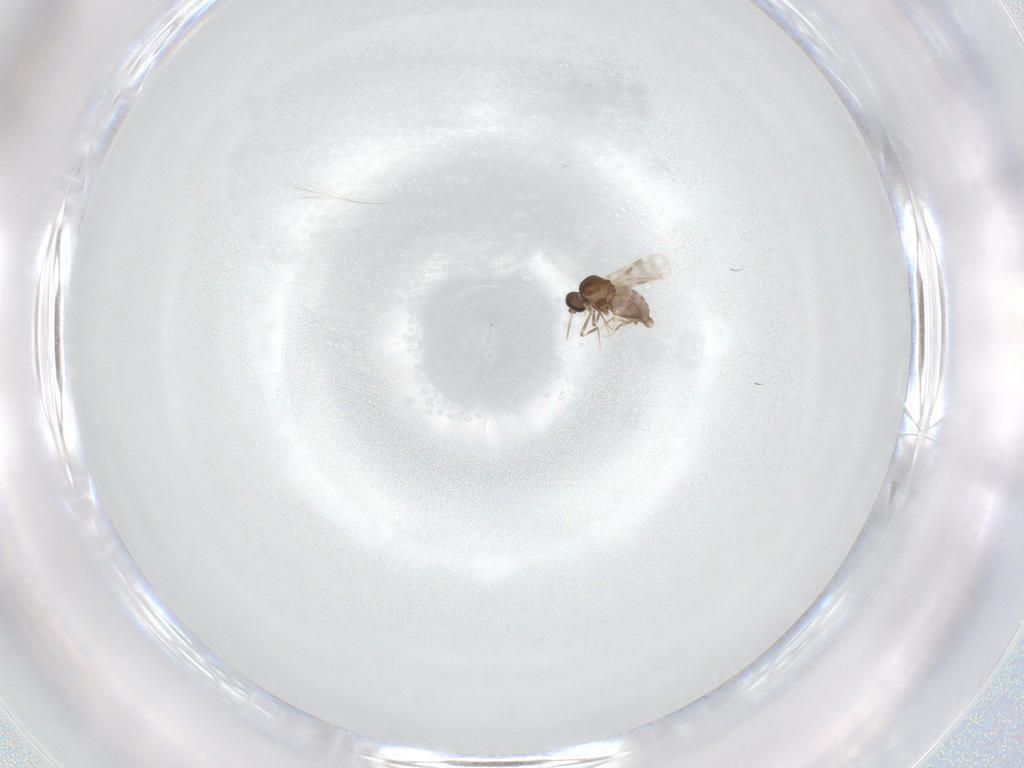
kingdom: Animalia
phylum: Arthropoda
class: Insecta
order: Diptera
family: Ceratopogonidae
